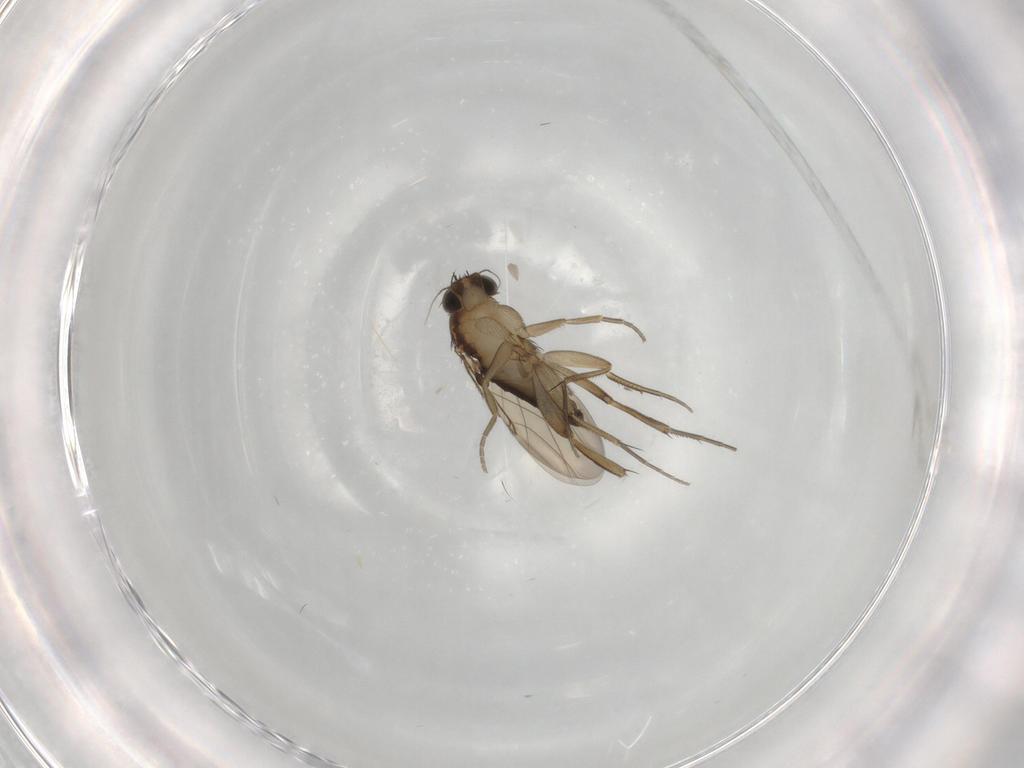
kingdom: Animalia
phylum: Arthropoda
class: Insecta
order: Diptera
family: Phoridae
